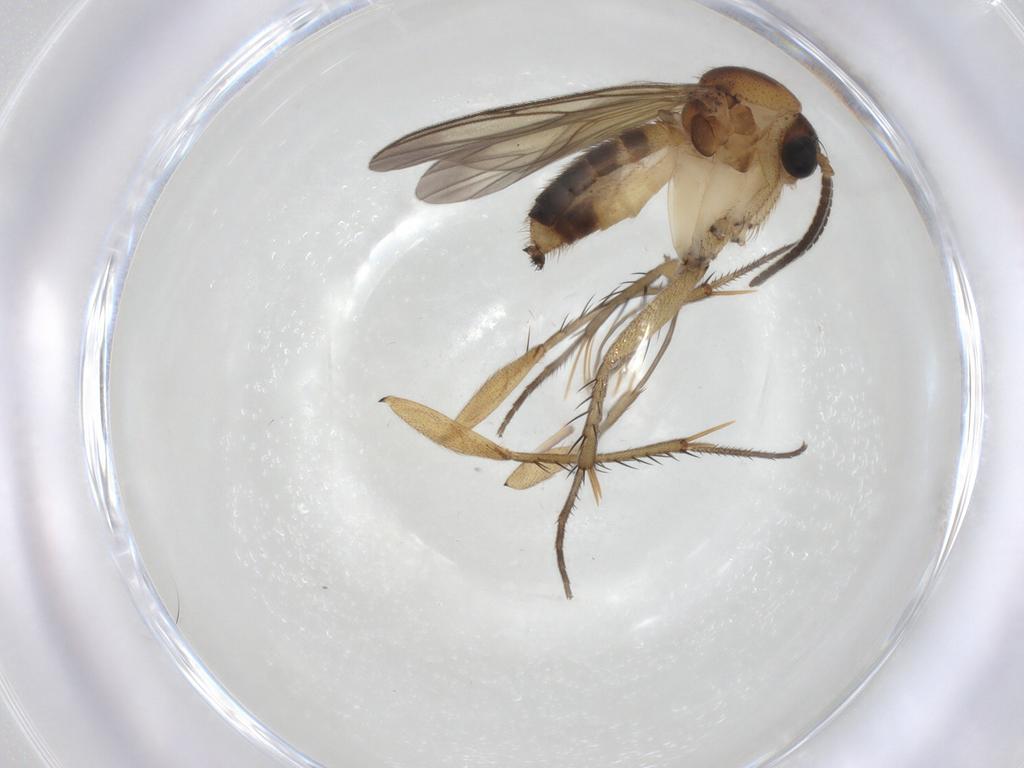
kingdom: Animalia
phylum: Arthropoda
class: Insecta
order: Diptera
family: Mycetophilidae
